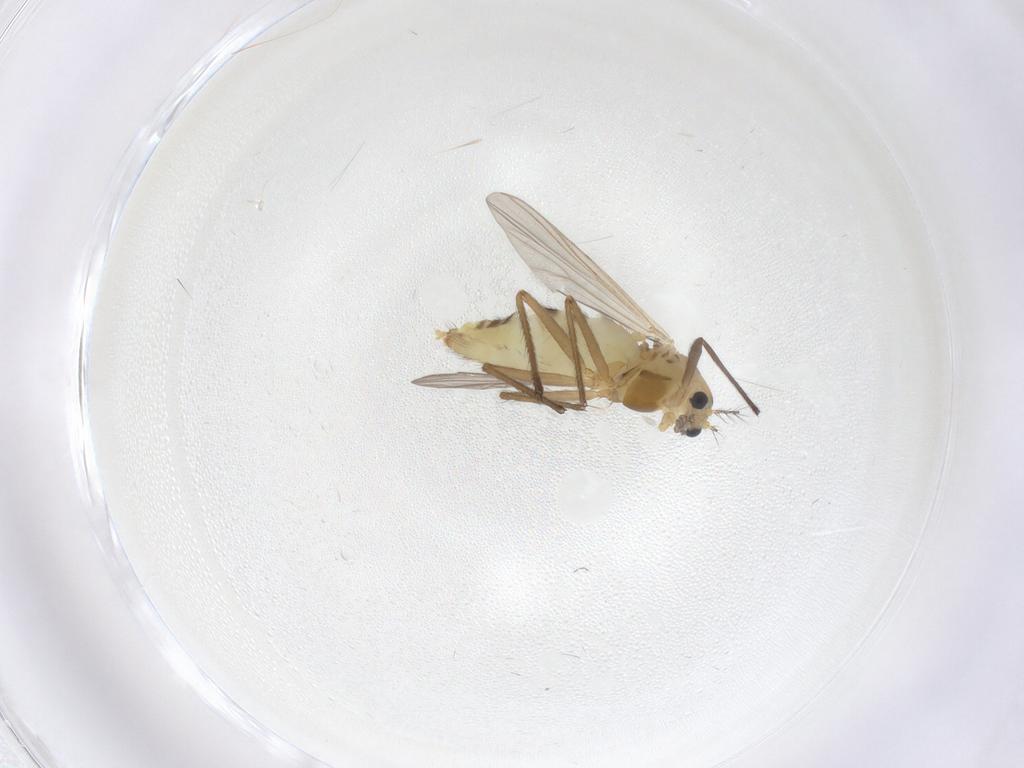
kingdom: Animalia
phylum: Arthropoda
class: Insecta
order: Diptera
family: Chironomidae
